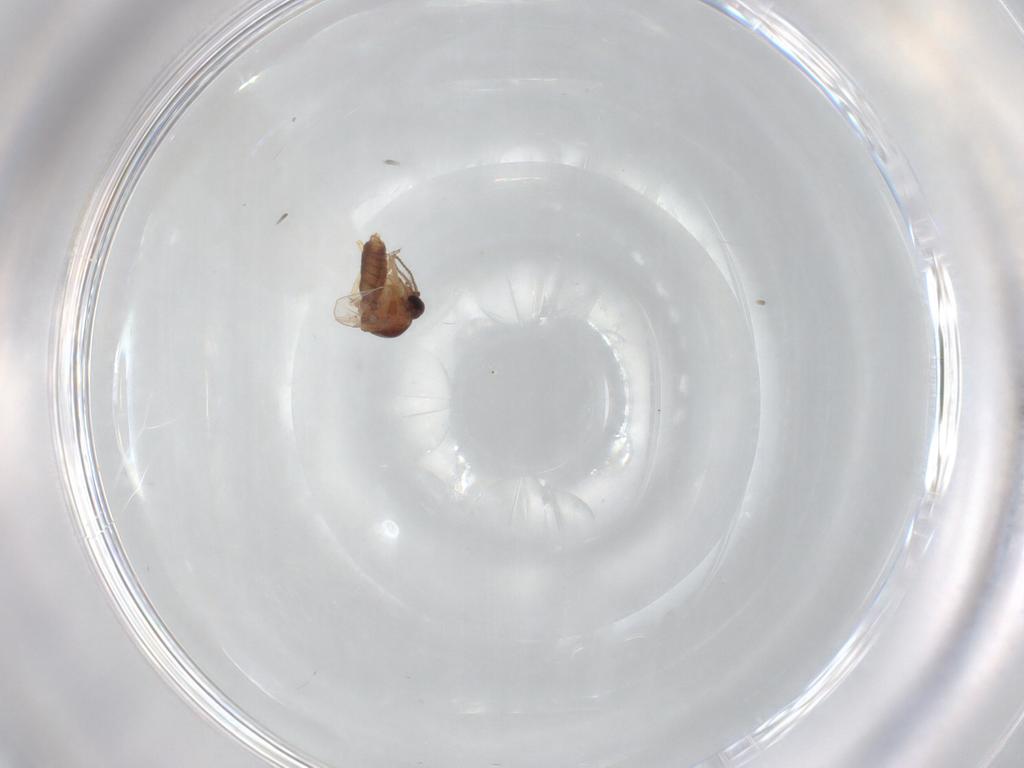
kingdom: Animalia
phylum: Arthropoda
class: Insecta
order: Diptera
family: Ceratopogonidae
